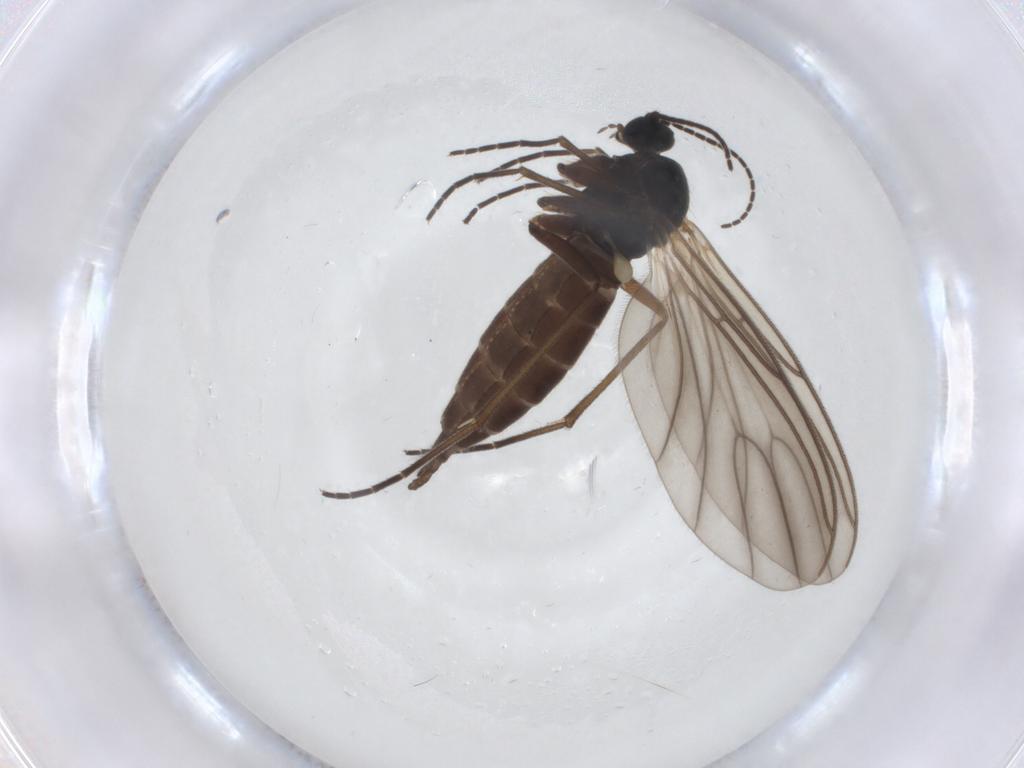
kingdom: Animalia
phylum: Arthropoda
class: Insecta
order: Diptera
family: Sciaridae
